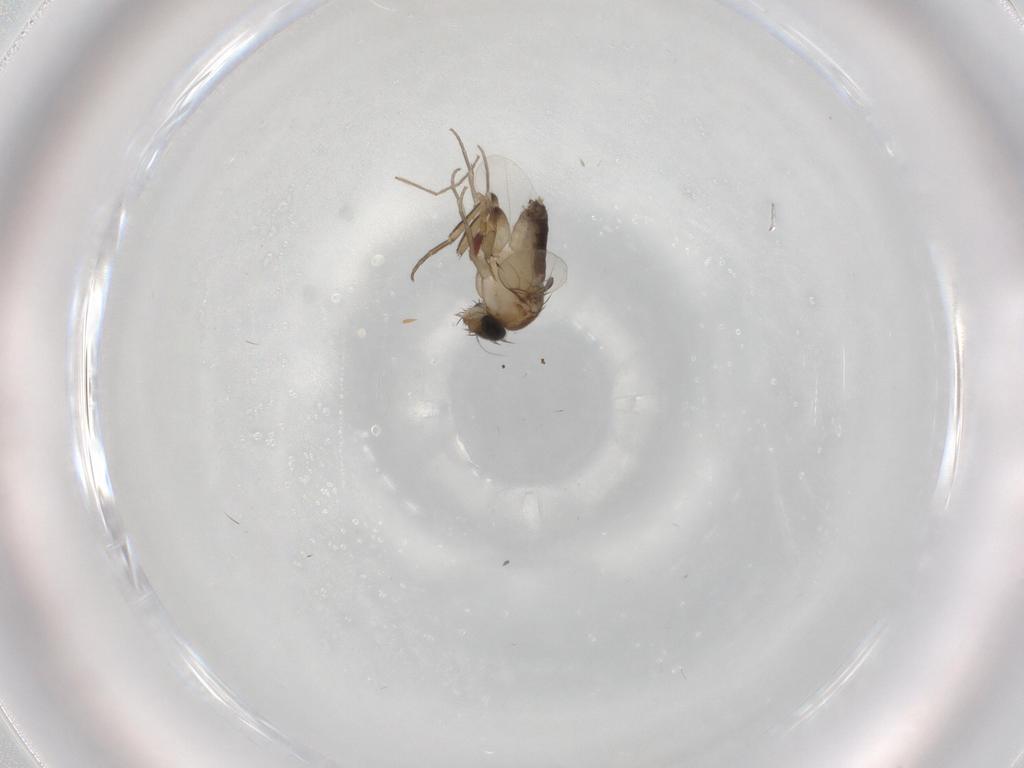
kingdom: Animalia
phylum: Arthropoda
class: Insecta
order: Diptera
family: Phoridae
